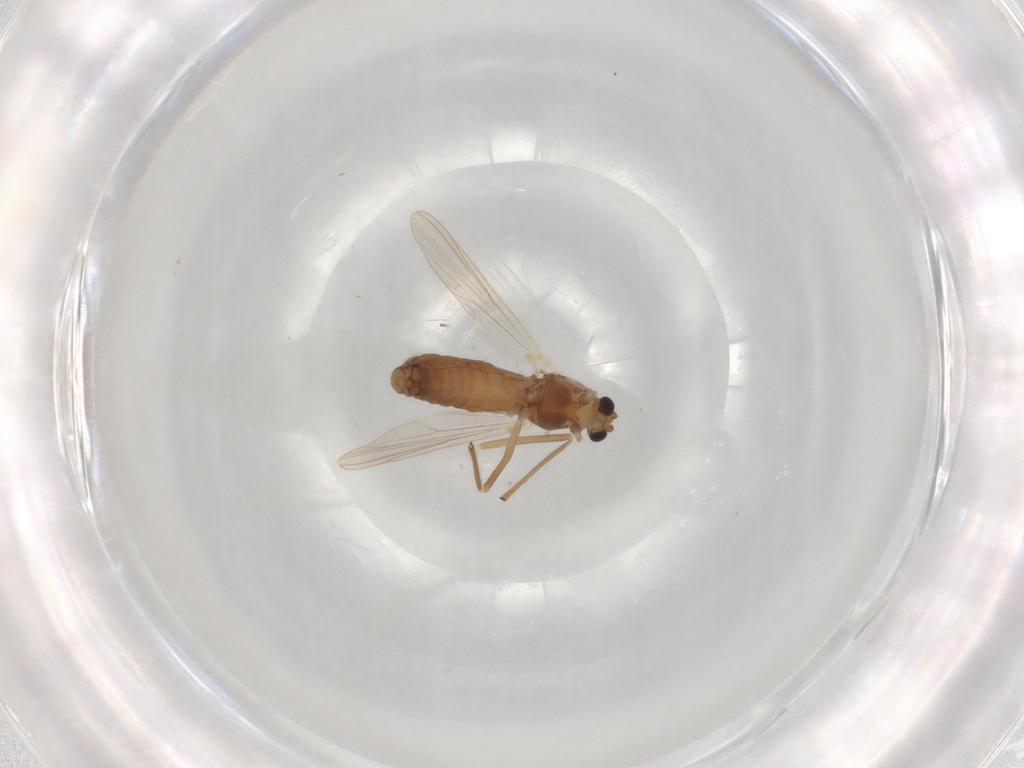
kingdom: Animalia
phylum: Arthropoda
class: Insecta
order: Diptera
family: Chironomidae
